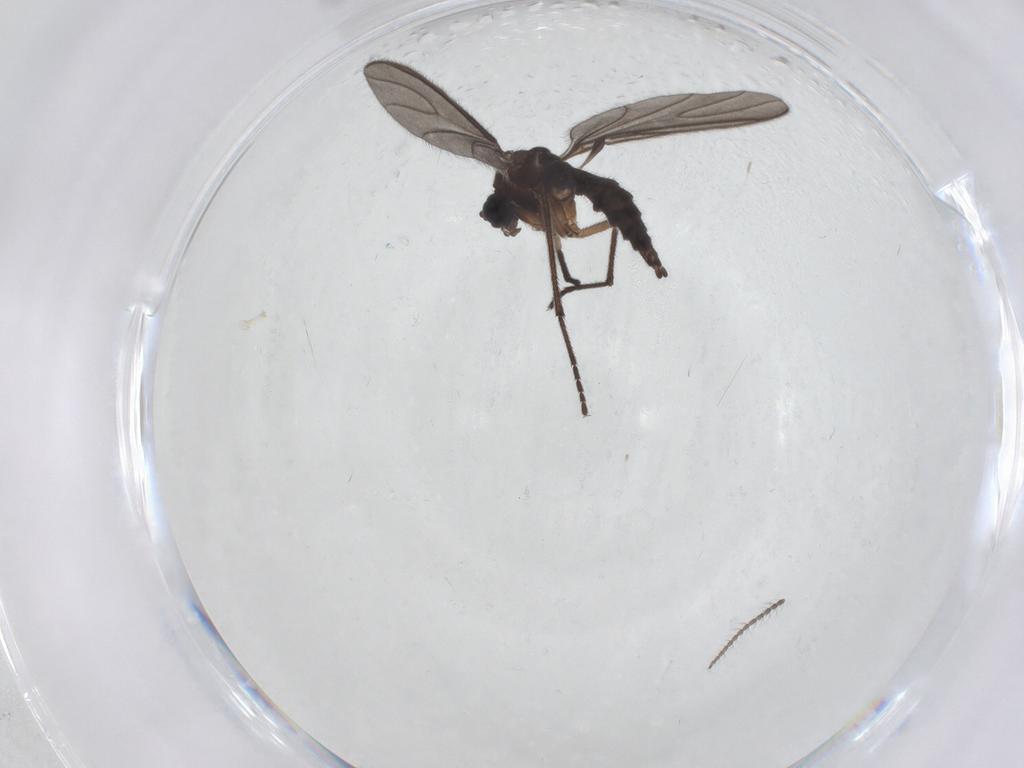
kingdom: Animalia
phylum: Arthropoda
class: Insecta
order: Diptera
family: Sciaridae
